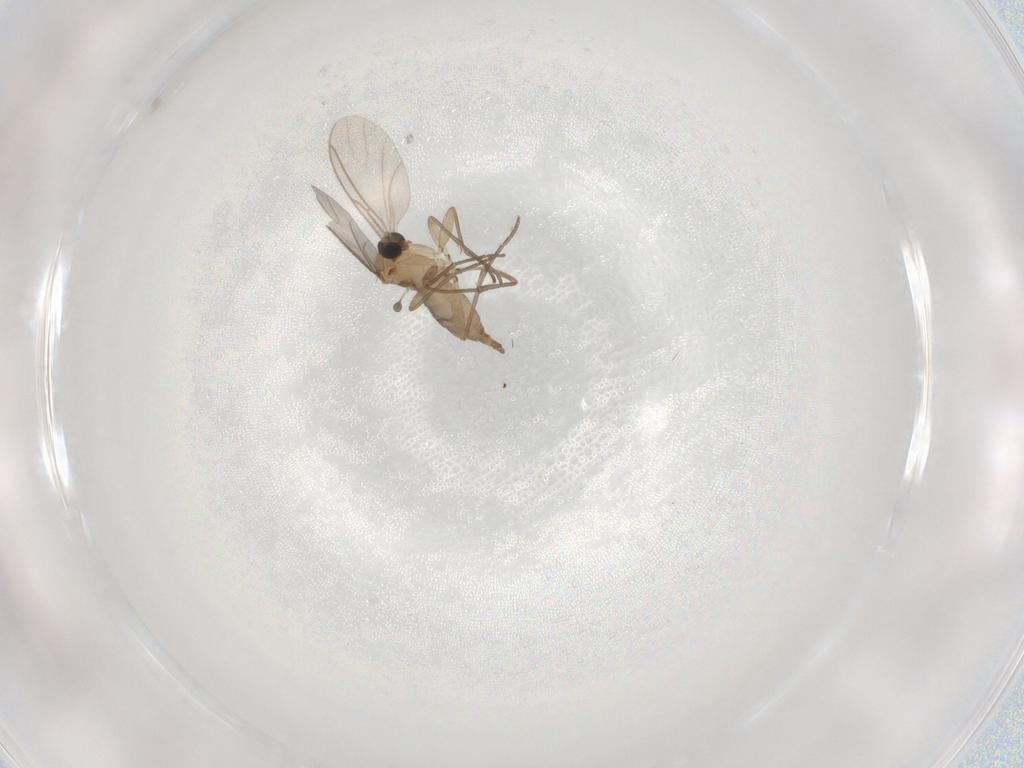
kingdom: Animalia
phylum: Arthropoda
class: Insecta
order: Diptera
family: Sciaridae
